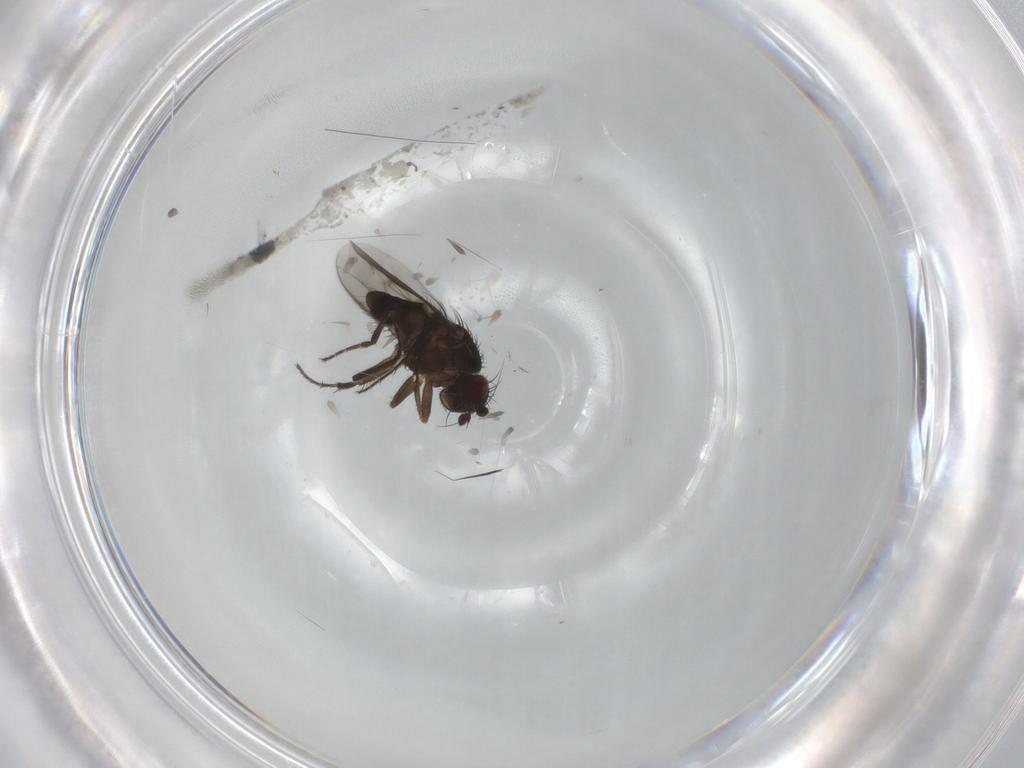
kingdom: Animalia
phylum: Arthropoda
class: Insecta
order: Diptera
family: Sphaeroceridae
